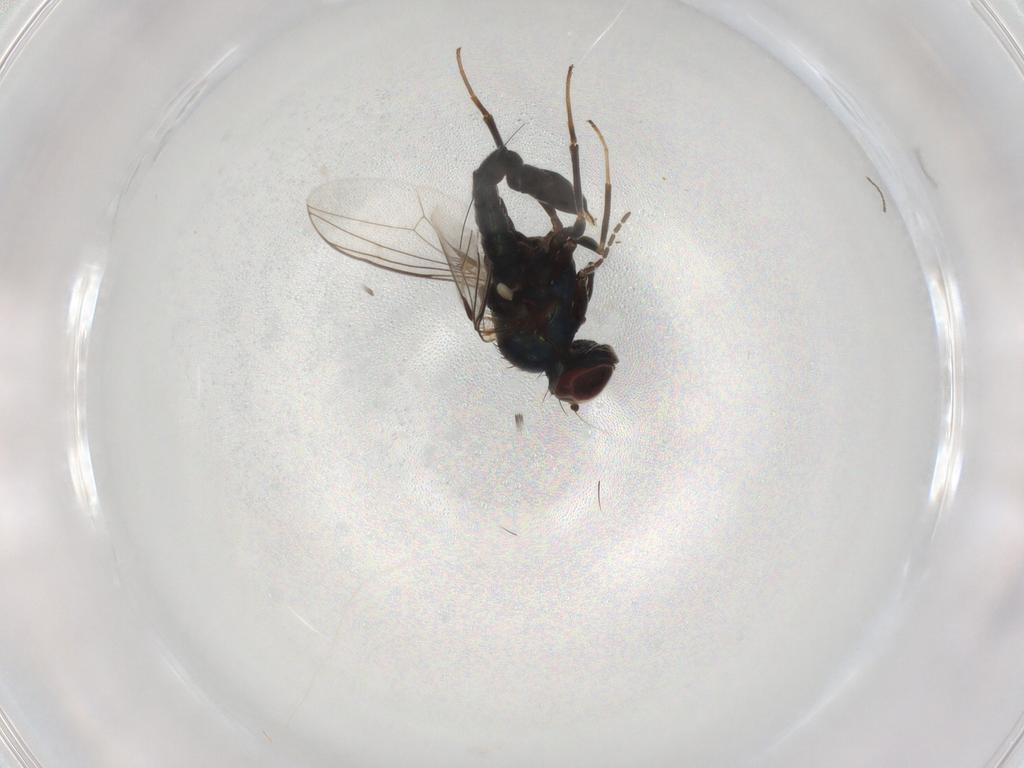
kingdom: Animalia
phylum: Arthropoda
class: Insecta
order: Diptera
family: Dolichopodidae
